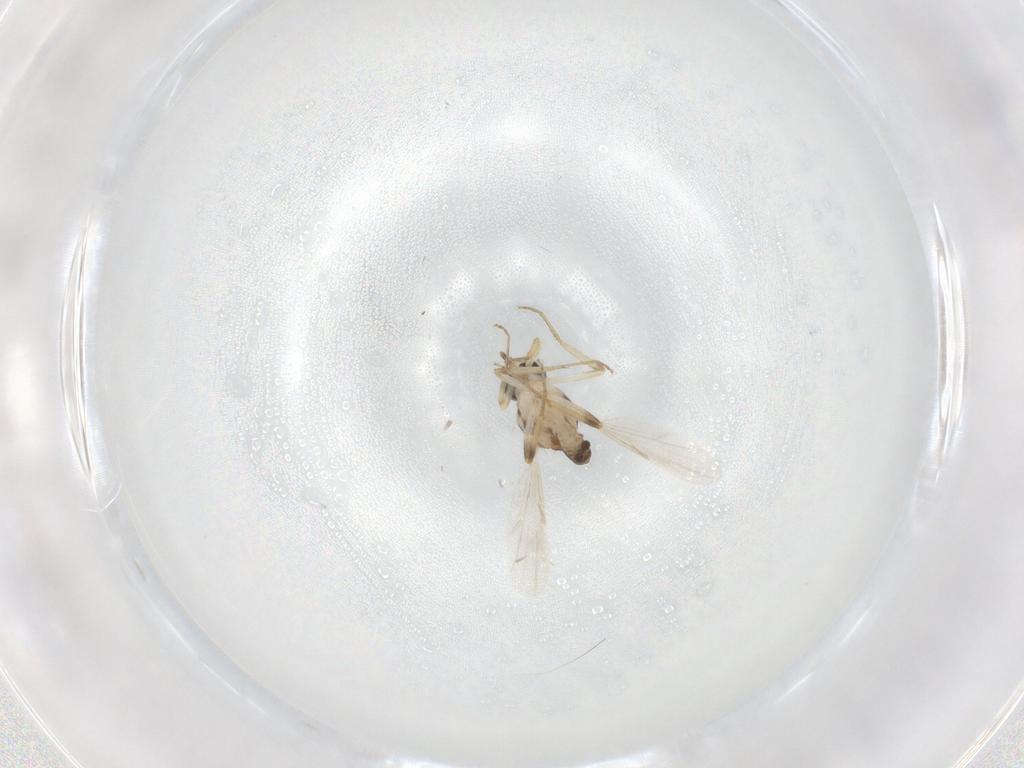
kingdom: Animalia
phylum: Arthropoda
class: Insecta
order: Diptera
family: Ceratopogonidae
